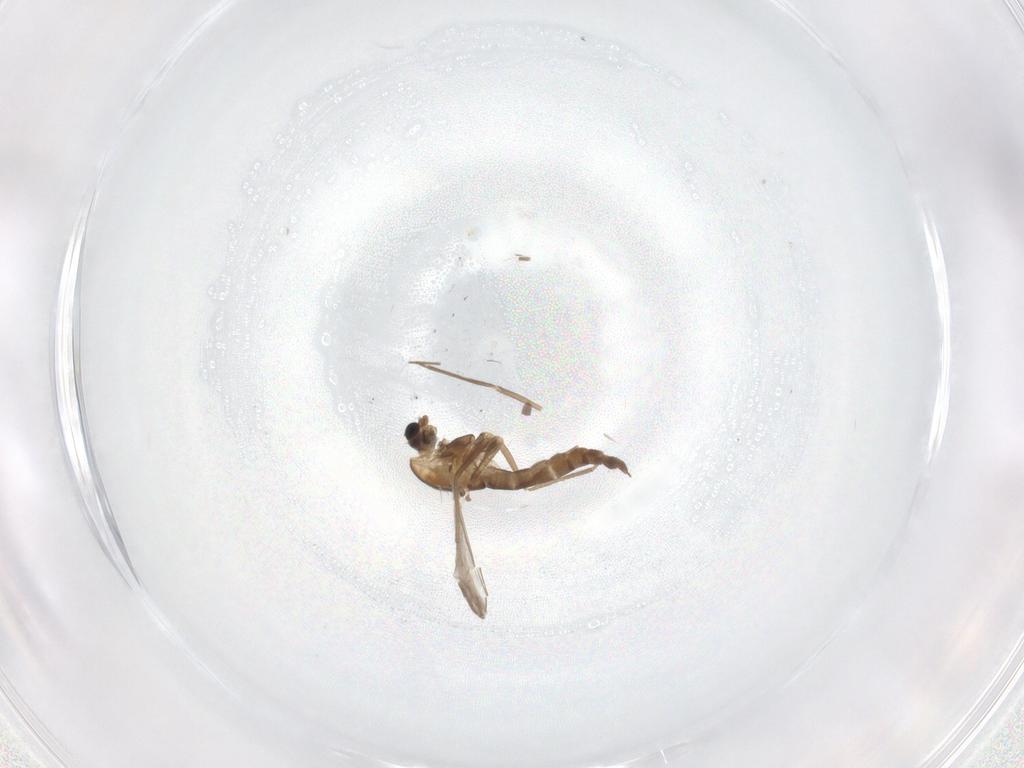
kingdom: Animalia
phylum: Arthropoda
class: Insecta
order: Diptera
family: Chironomidae
